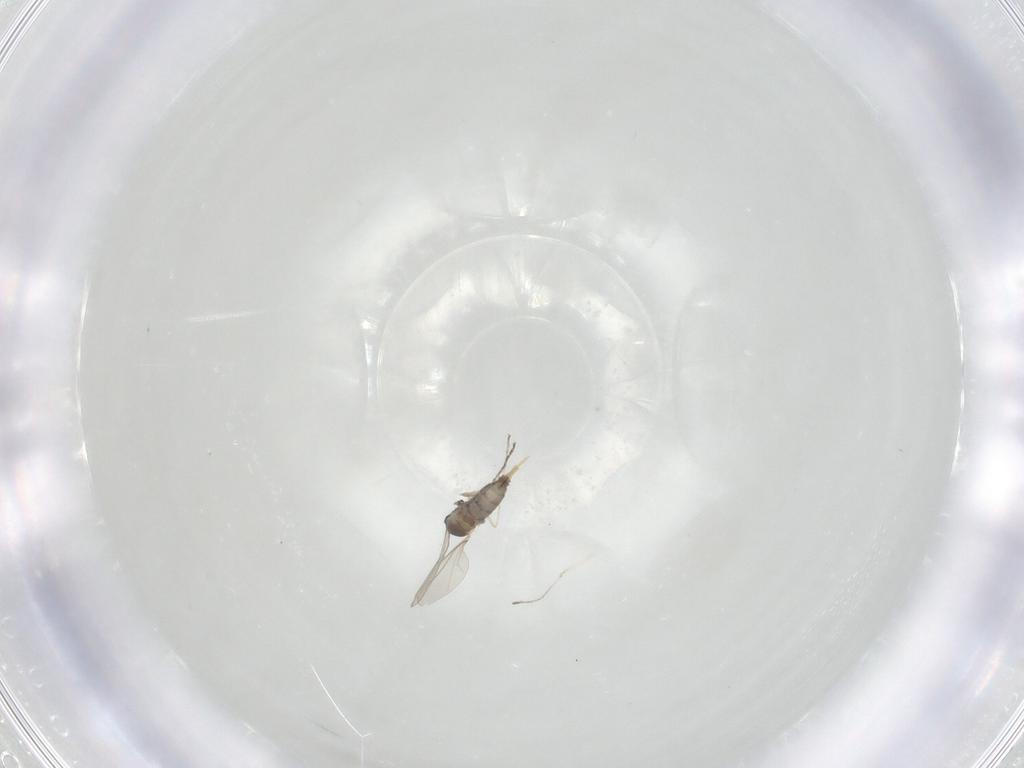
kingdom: Animalia
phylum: Arthropoda
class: Insecta
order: Diptera
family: Cecidomyiidae
